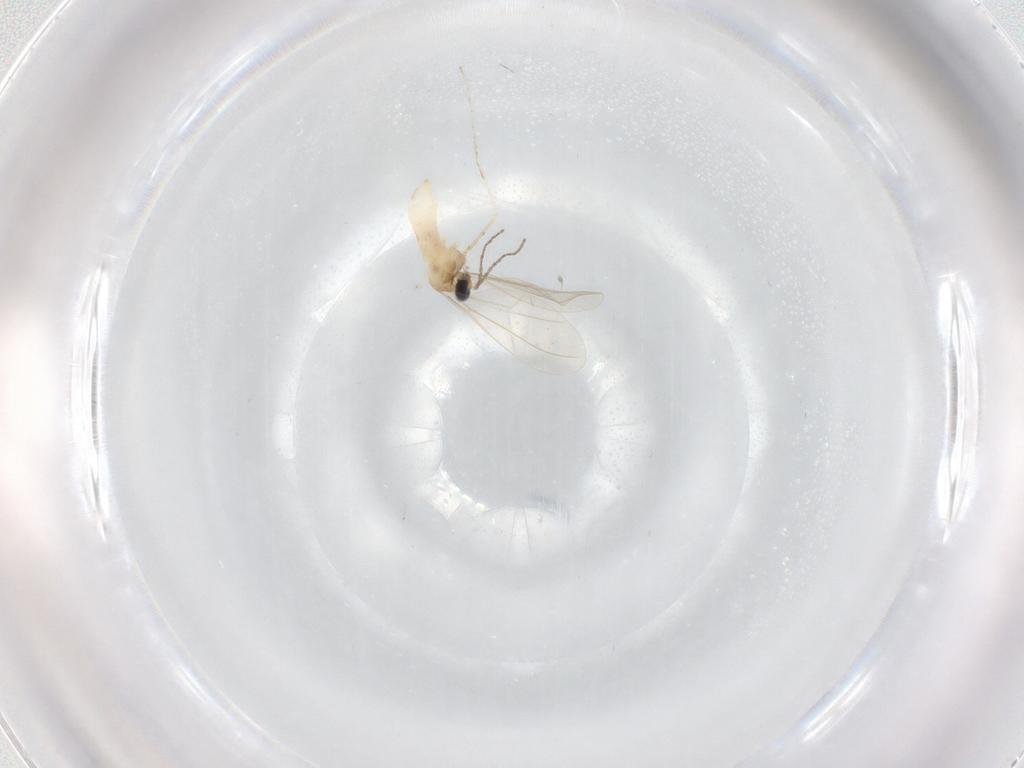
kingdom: Animalia
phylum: Arthropoda
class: Insecta
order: Diptera
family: Cecidomyiidae
